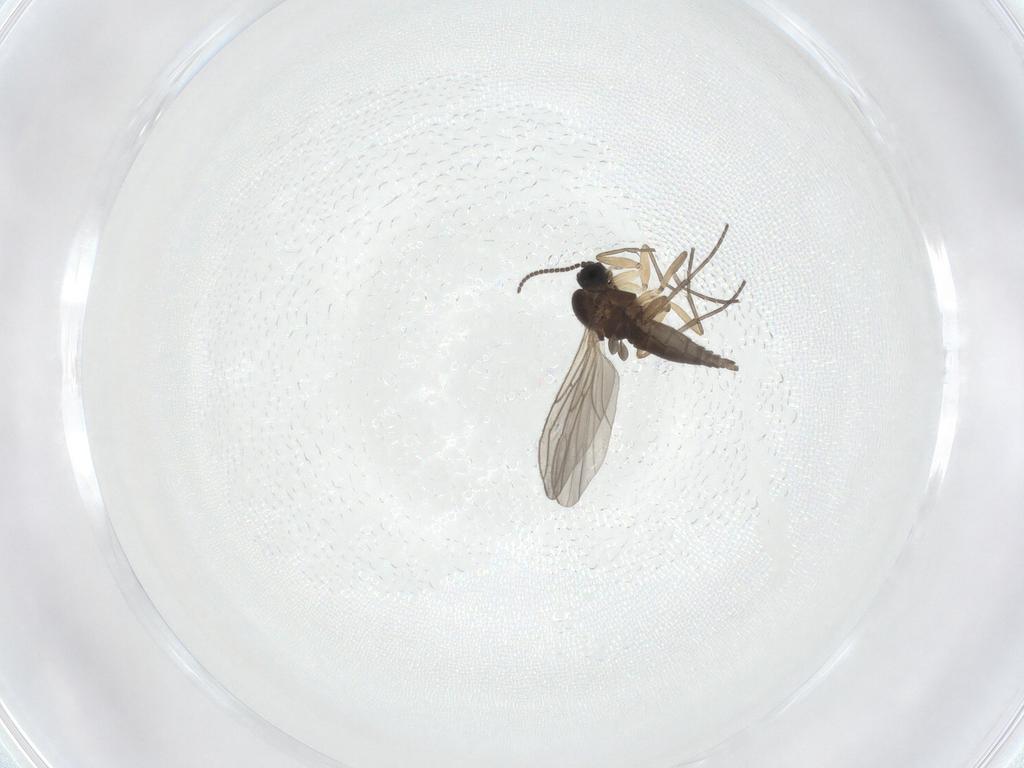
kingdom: Animalia
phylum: Arthropoda
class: Insecta
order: Diptera
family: Sciaridae
